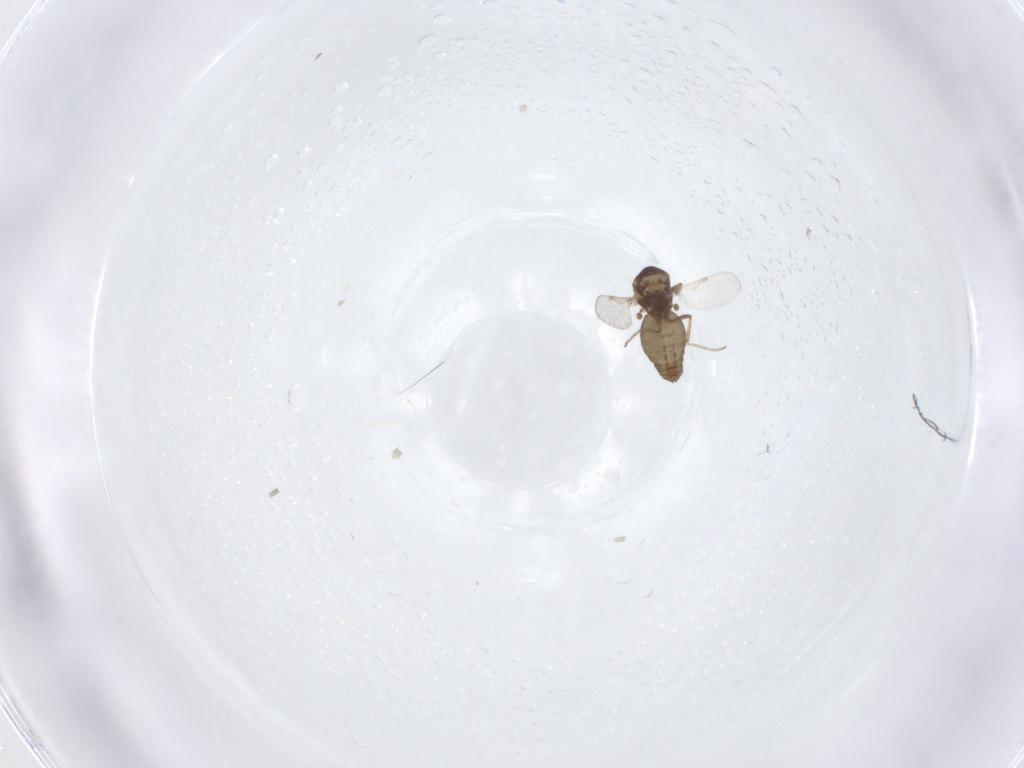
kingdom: Animalia
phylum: Arthropoda
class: Insecta
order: Diptera
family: Ceratopogonidae
